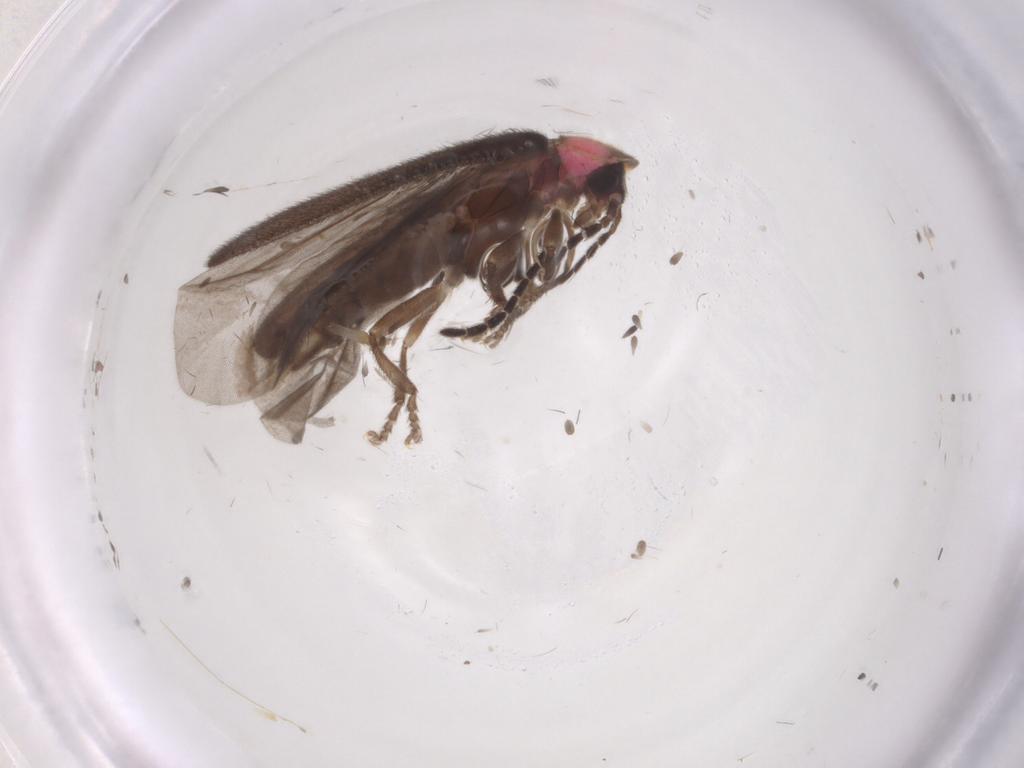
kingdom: Animalia
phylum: Arthropoda
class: Insecta
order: Coleoptera
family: Lampyridae
